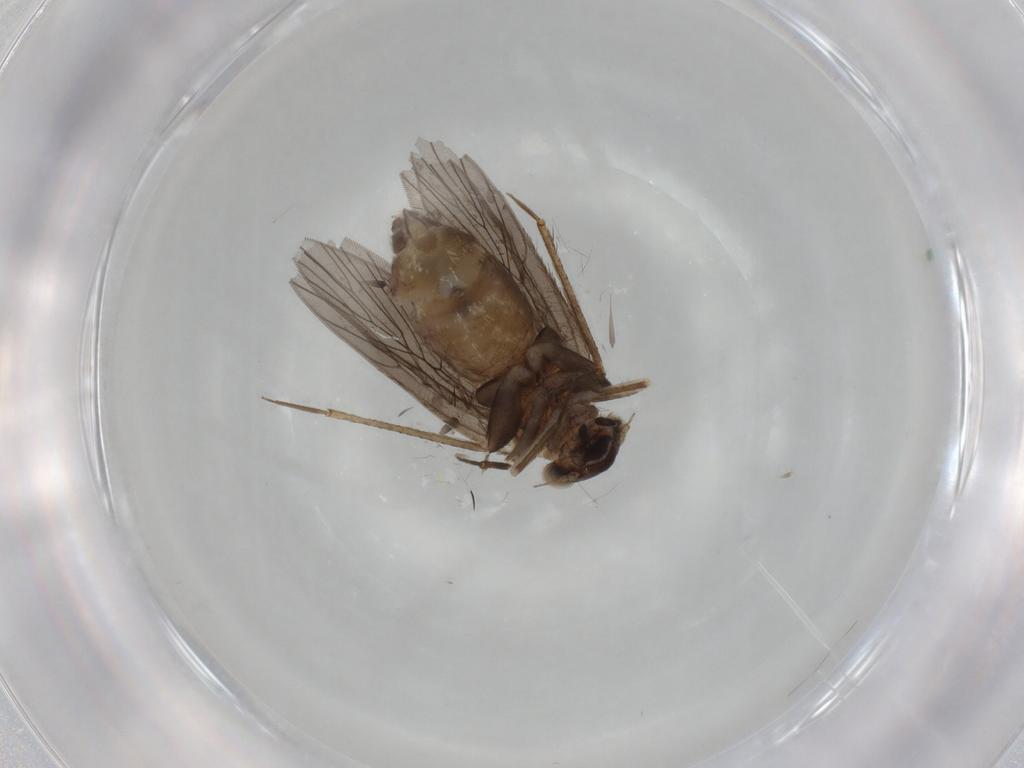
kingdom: Animalia
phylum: Arthropoda
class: Insecta
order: Psocodea
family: Lepidopsocidae
